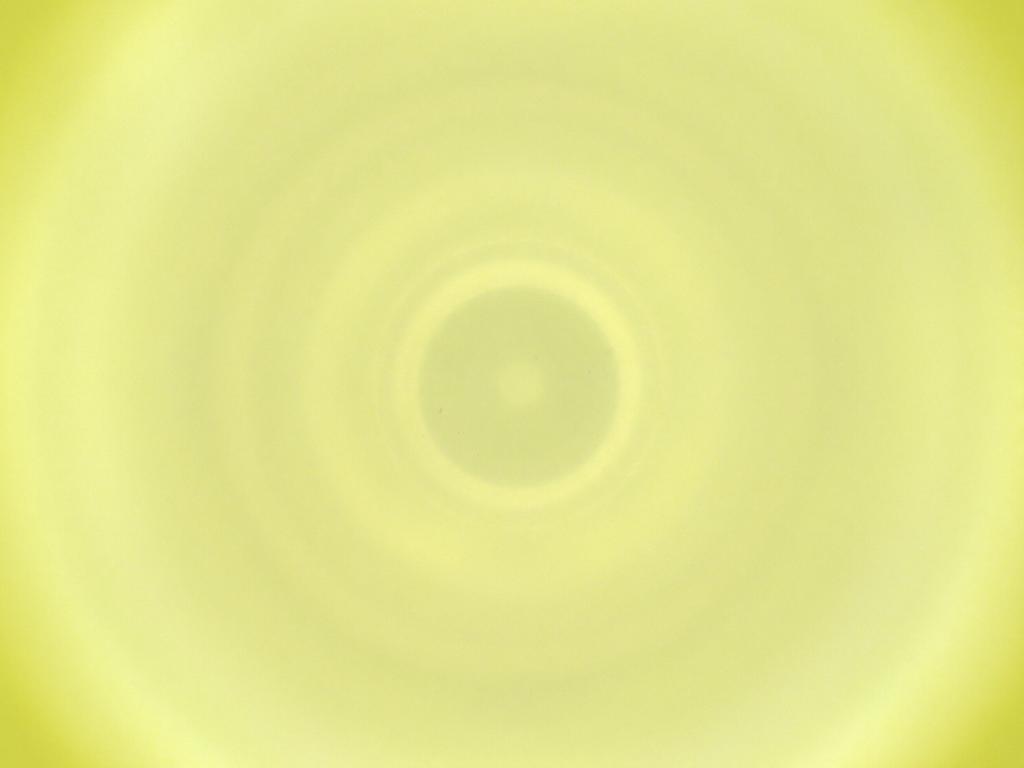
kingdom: Animalia
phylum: Arthropoda
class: Insecta
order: Diptera
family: Cecidomyiidae
